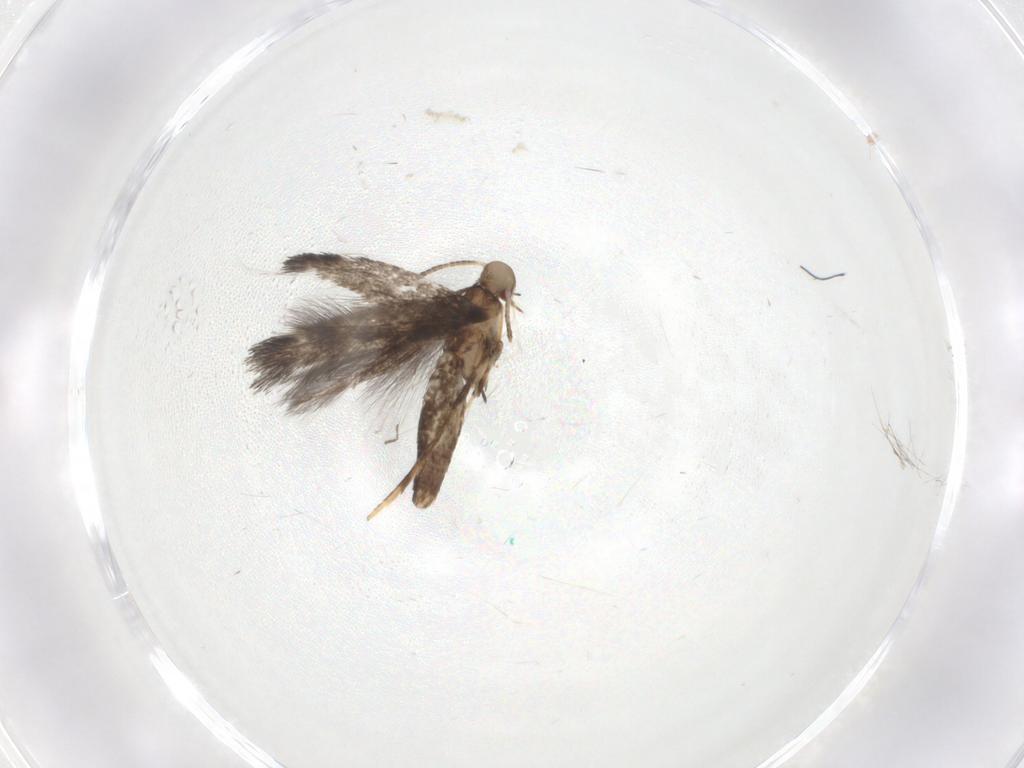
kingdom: Animalia
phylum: Arthropoda
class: Insecta
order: Lepidoptera
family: Gracillariidae
